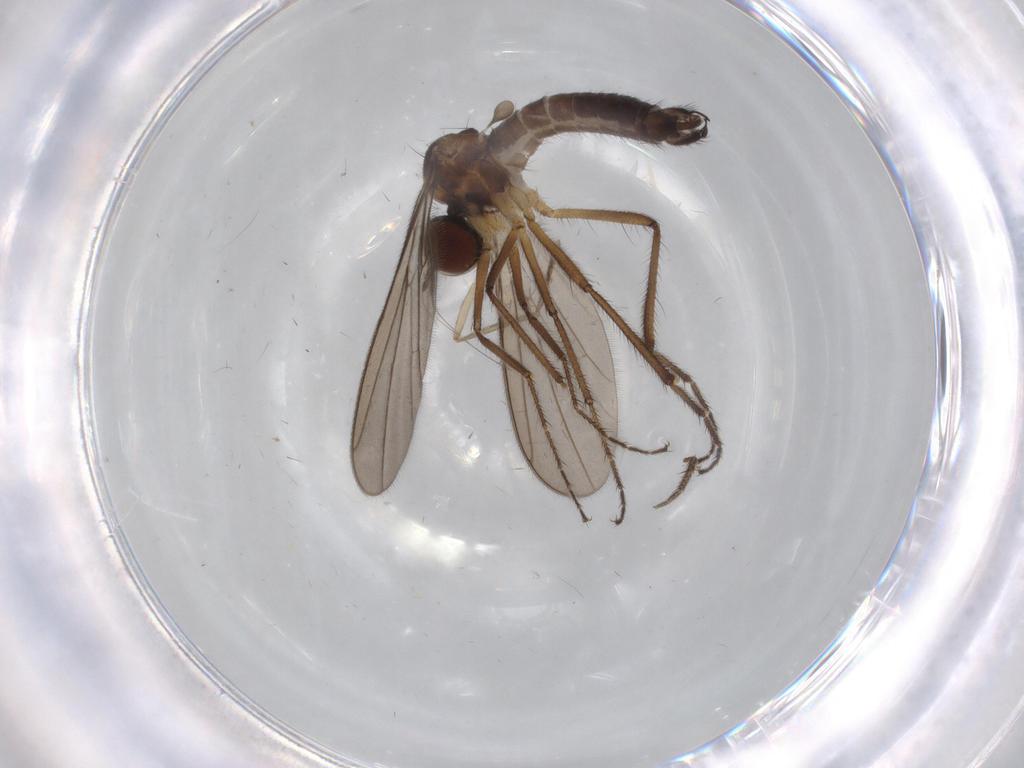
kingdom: Animalia
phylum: Arthropoda
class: Insecta
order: Diptera
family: Hybotidae
